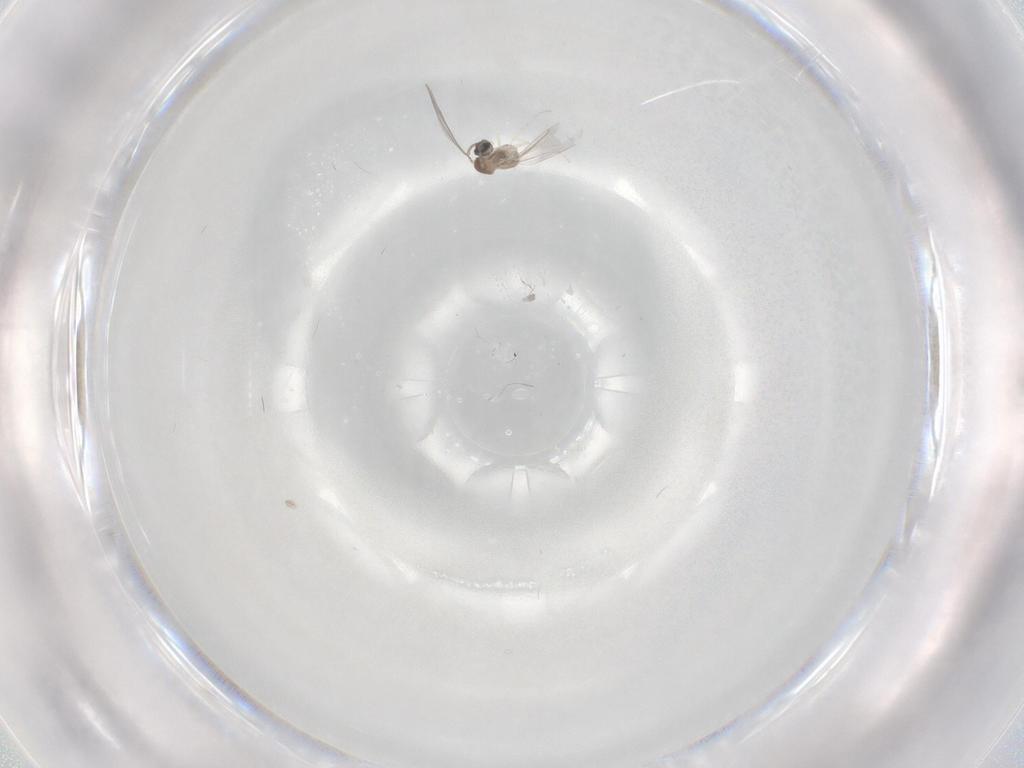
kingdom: Animalia
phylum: Arthropoda
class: Insecta
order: Diptera
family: Cecidomyiidae
